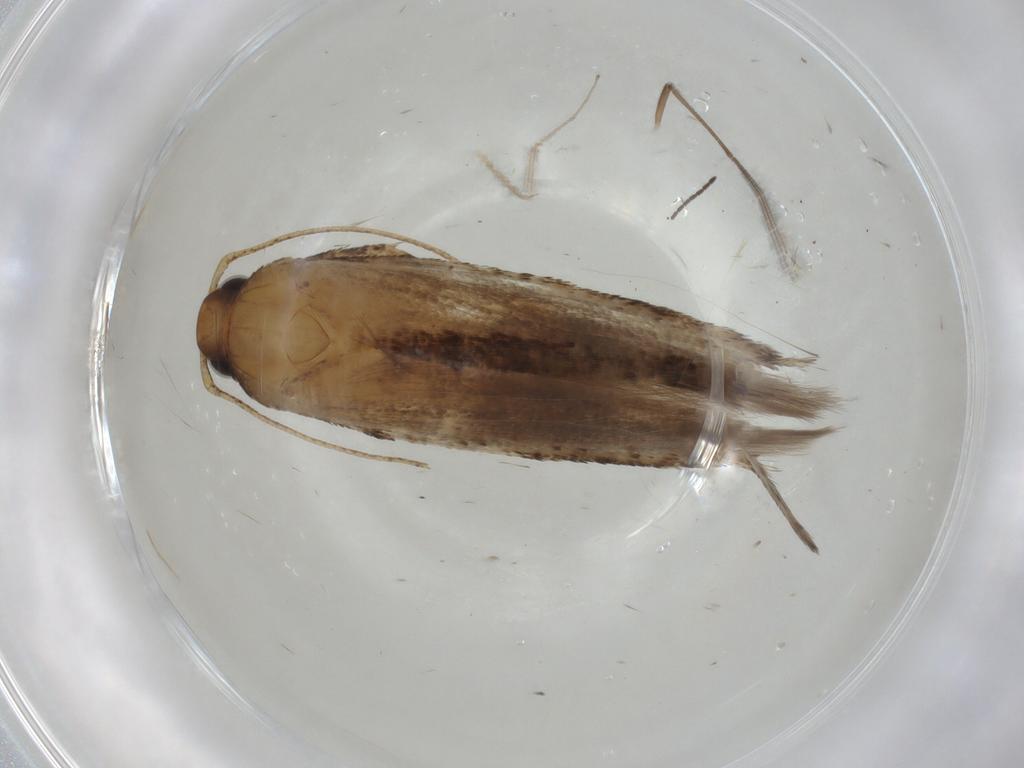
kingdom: Animalia
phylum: Arthropoda
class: Insecta
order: Lepidoptera
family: Gelechiidae
